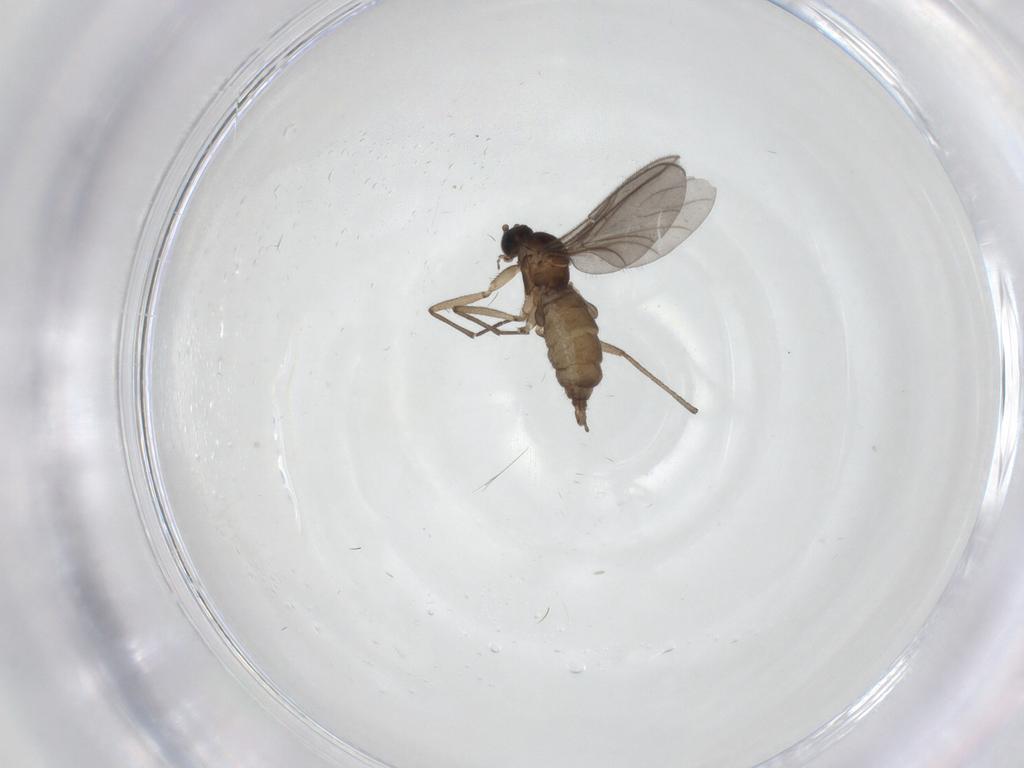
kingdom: Animalia
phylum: Arthropoda
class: Insecta
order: Diptera
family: Sciaridae
